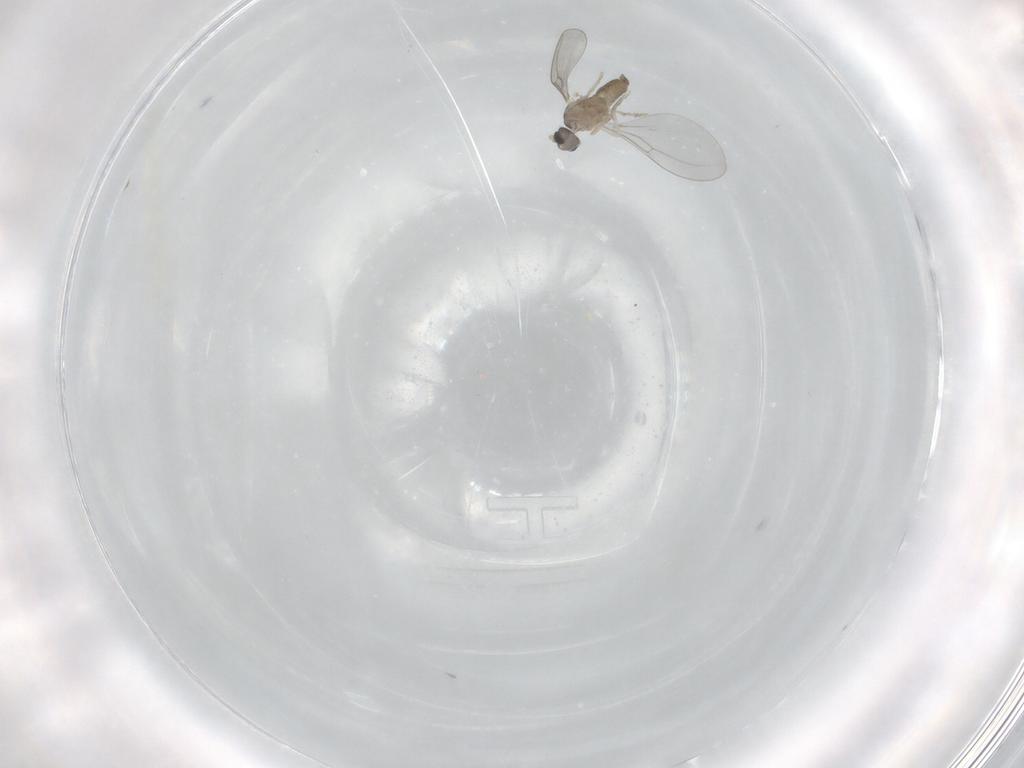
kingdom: Animalia
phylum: Arthropoda
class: Insecta
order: Diptera
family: Cecidomyiidae
